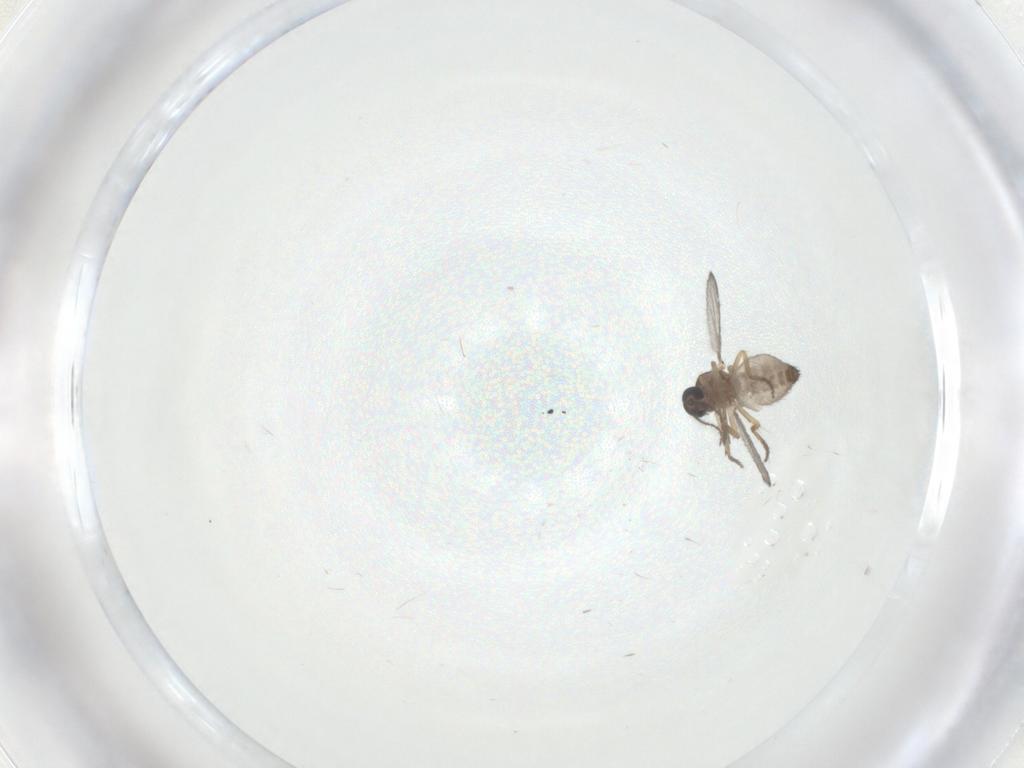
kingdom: Animalia
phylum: Arthropoda
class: Insecta
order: Diptera
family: Ceratopogonidae
